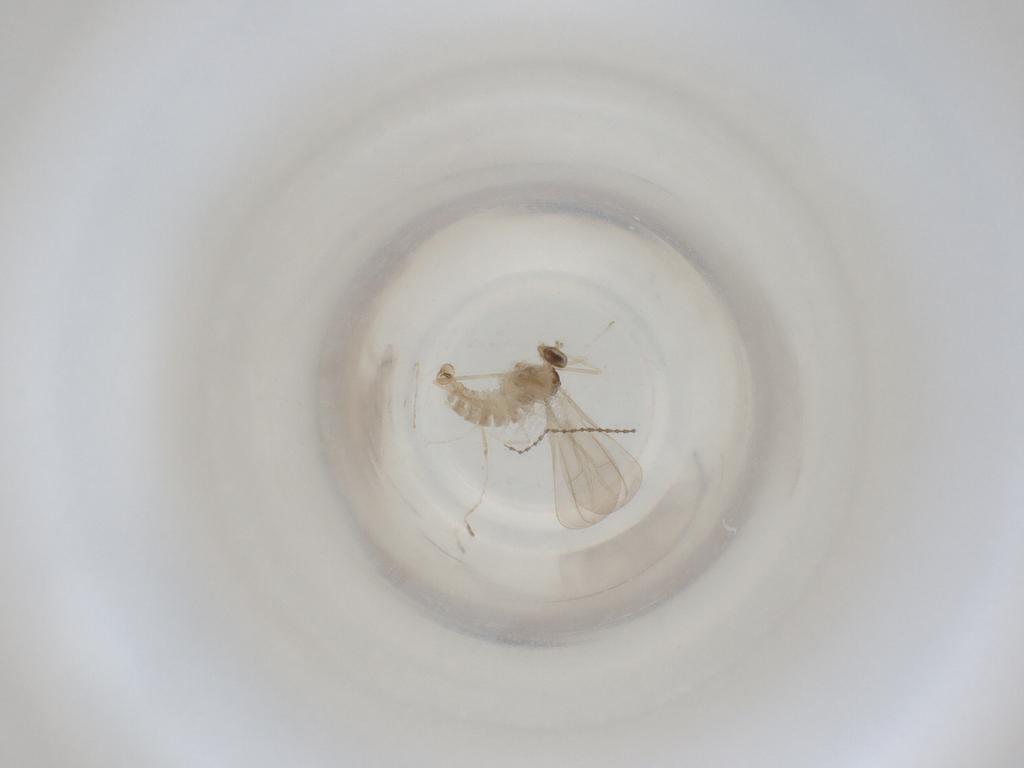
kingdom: Animalia
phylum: Arthropoda
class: Insecta
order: Diptera
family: Cecidomyiidae
